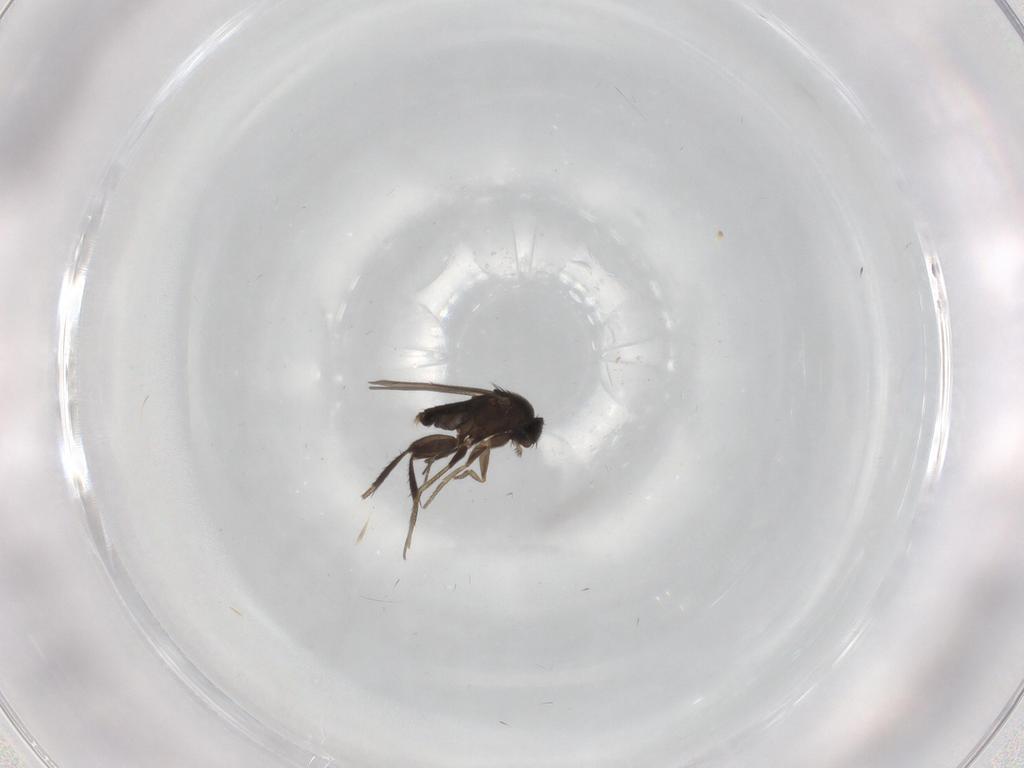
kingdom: Animalia
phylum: Arthropoda
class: Insecta
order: Diptera
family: Phoridae
